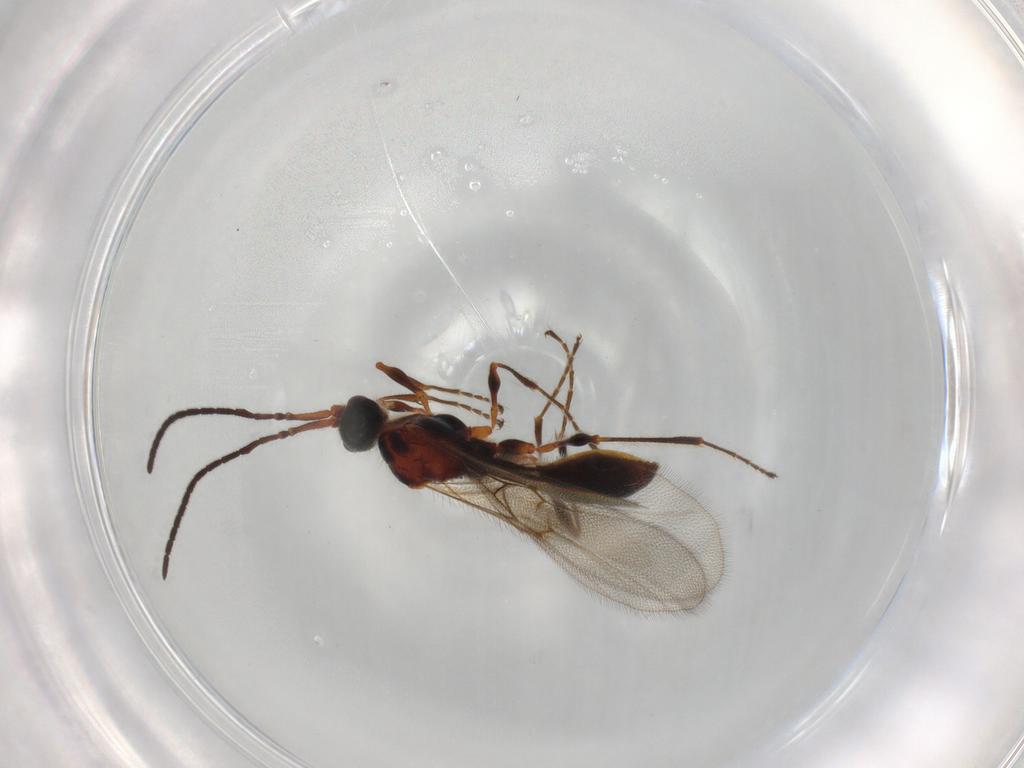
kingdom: Animalia
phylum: Arthropoda
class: Insecta
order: Hymenoptera
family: Diapriidae
